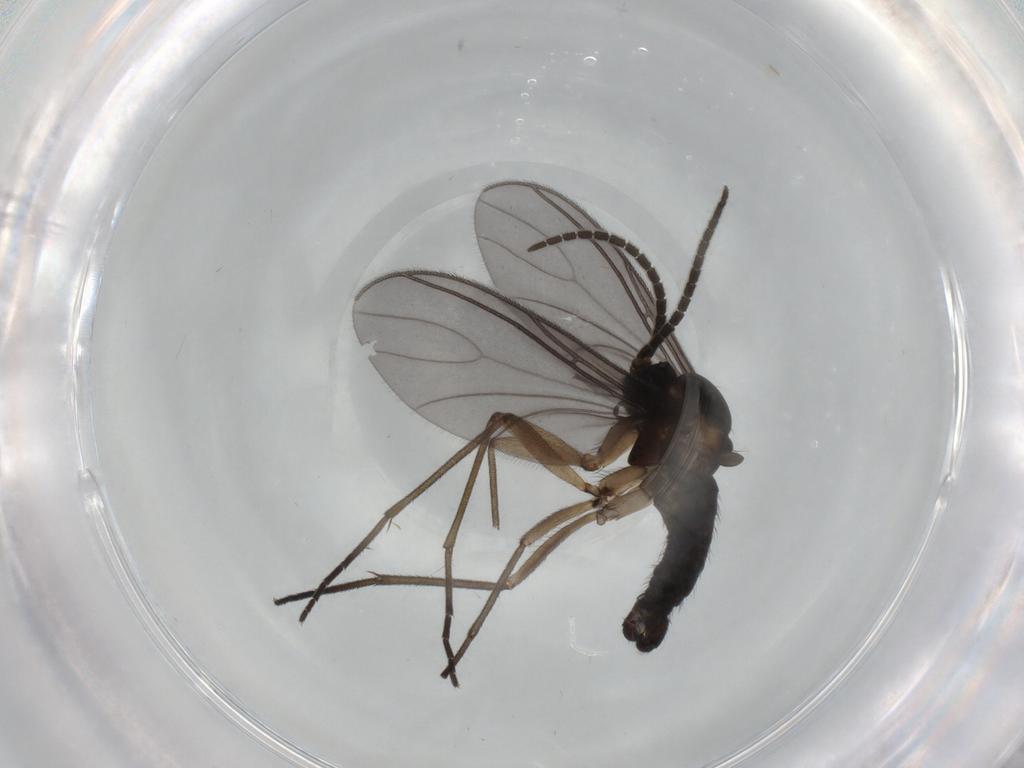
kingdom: Animalia
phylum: Arthropoda
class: Insecta
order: Diptera
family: Sciaridae
